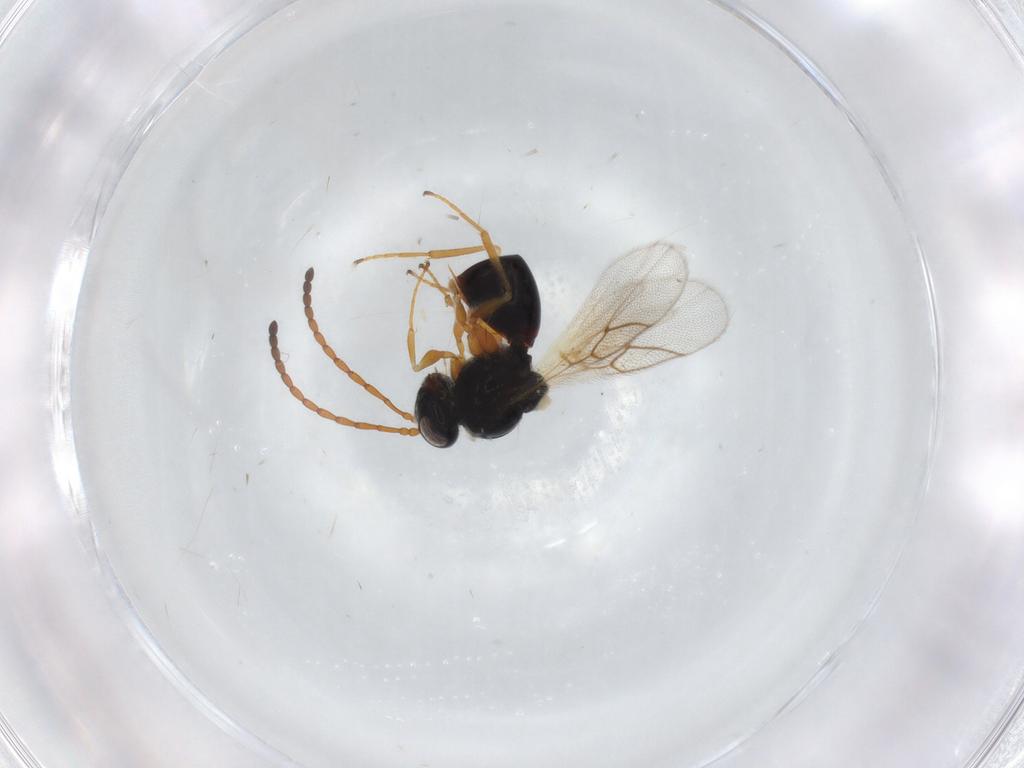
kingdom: Animalia
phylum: Arthropoda
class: Insecta
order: Hymenoptera
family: Figitidae
